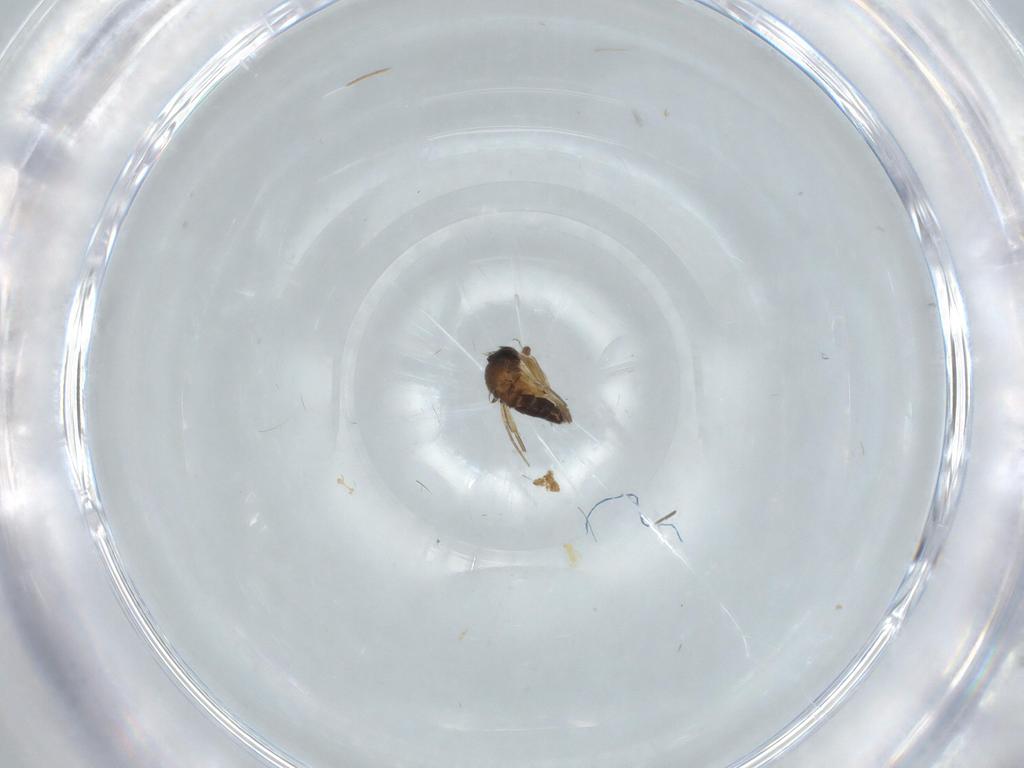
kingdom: Animalia
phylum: Arthropoda
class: Insecta
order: Diptera
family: Phoridae
